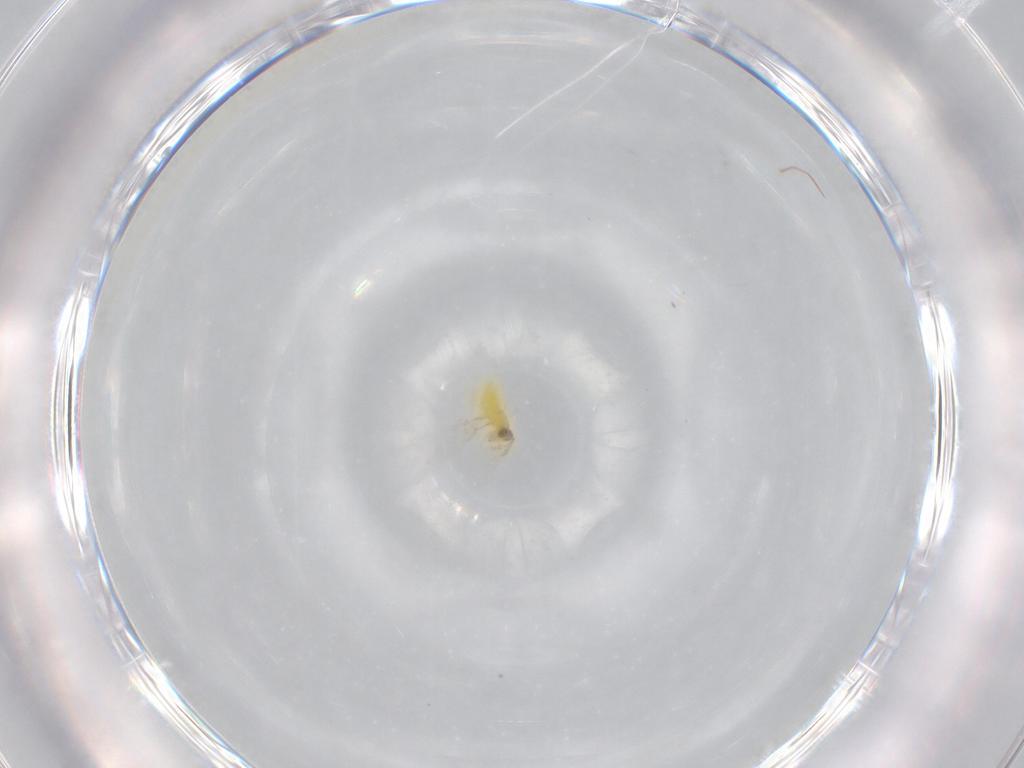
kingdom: Animalia
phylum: Arthropoda
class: Insecta
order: Hymenoptera
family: Aphelinidae
